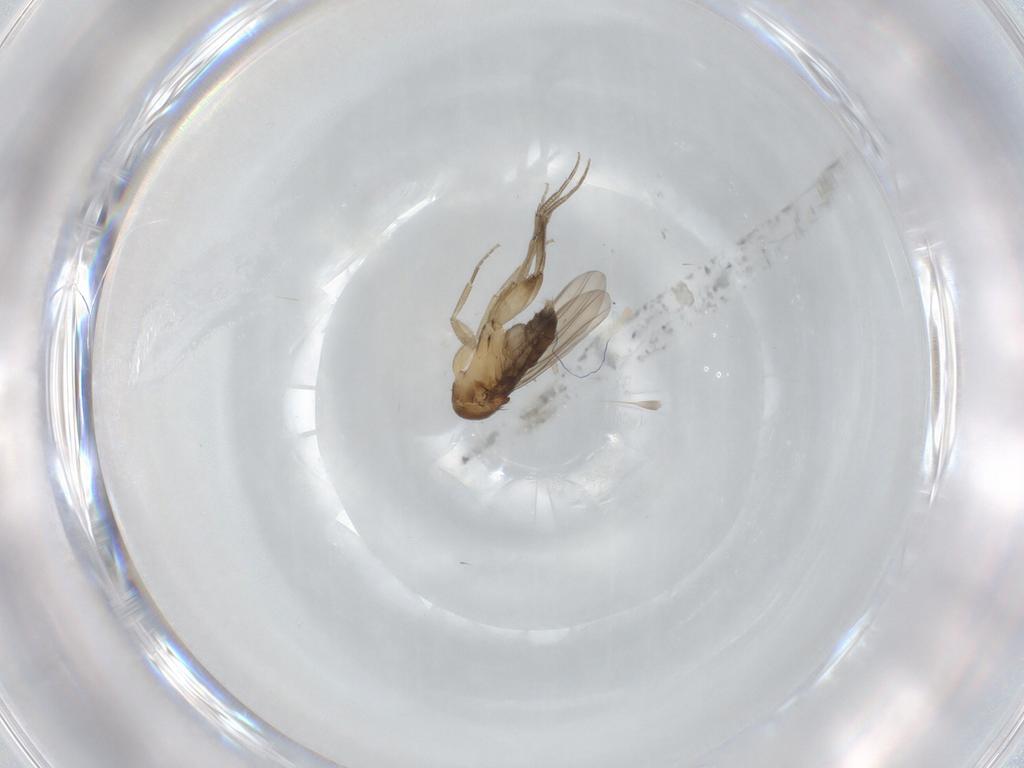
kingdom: Animalia
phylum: Arthropoda
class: Insecta
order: Diptera
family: Phoridae
